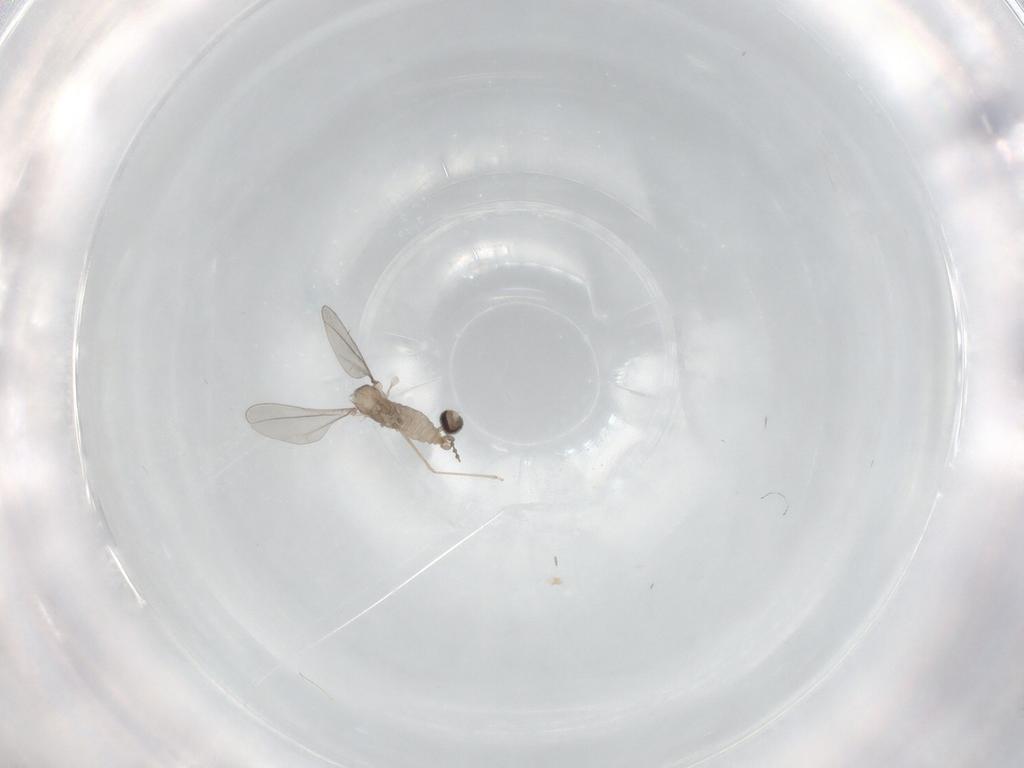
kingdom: Animalia
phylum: Arthropoda
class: Insecta
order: Diptera
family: Cecidomyiidae
